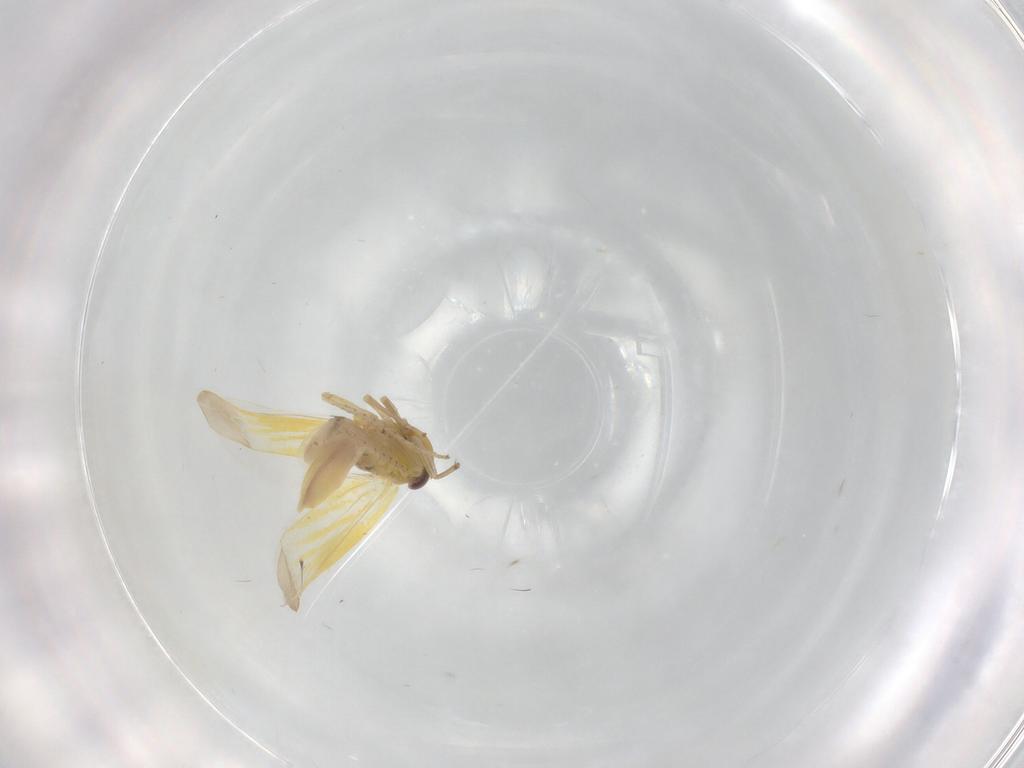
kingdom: Animalia
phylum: Arthropoda
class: Insecta
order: Hemiptera
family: Cicadellidae
